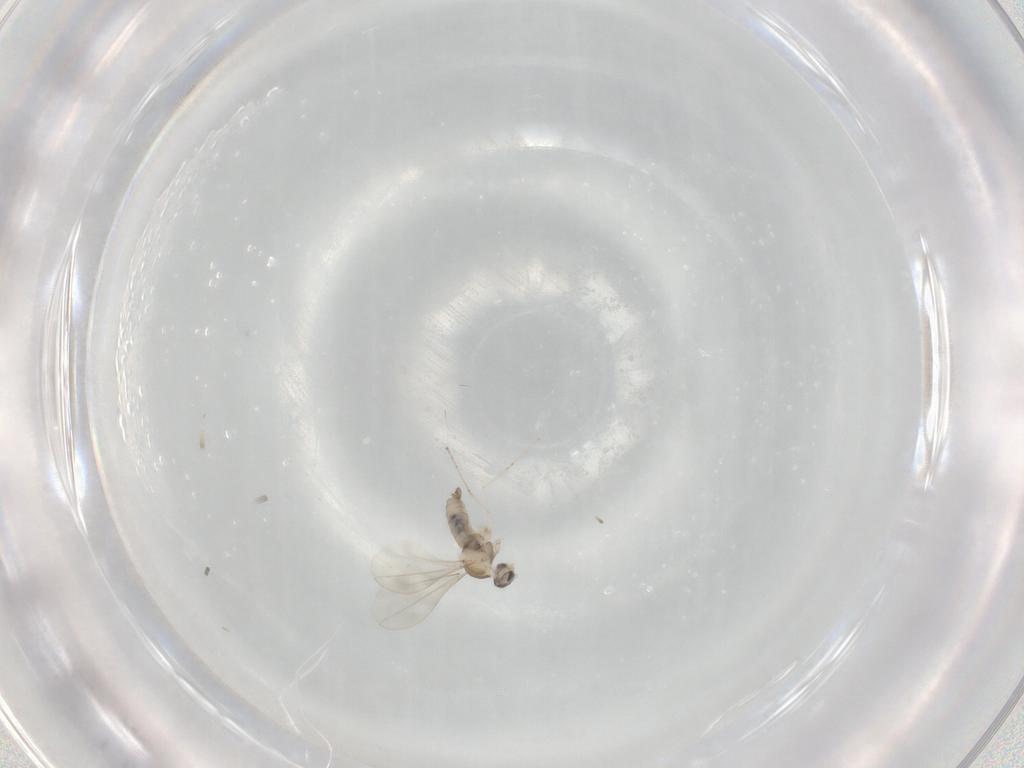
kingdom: Animalia
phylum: Arthropoda
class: Insecta
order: Diptera
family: Cecidomyiidae
